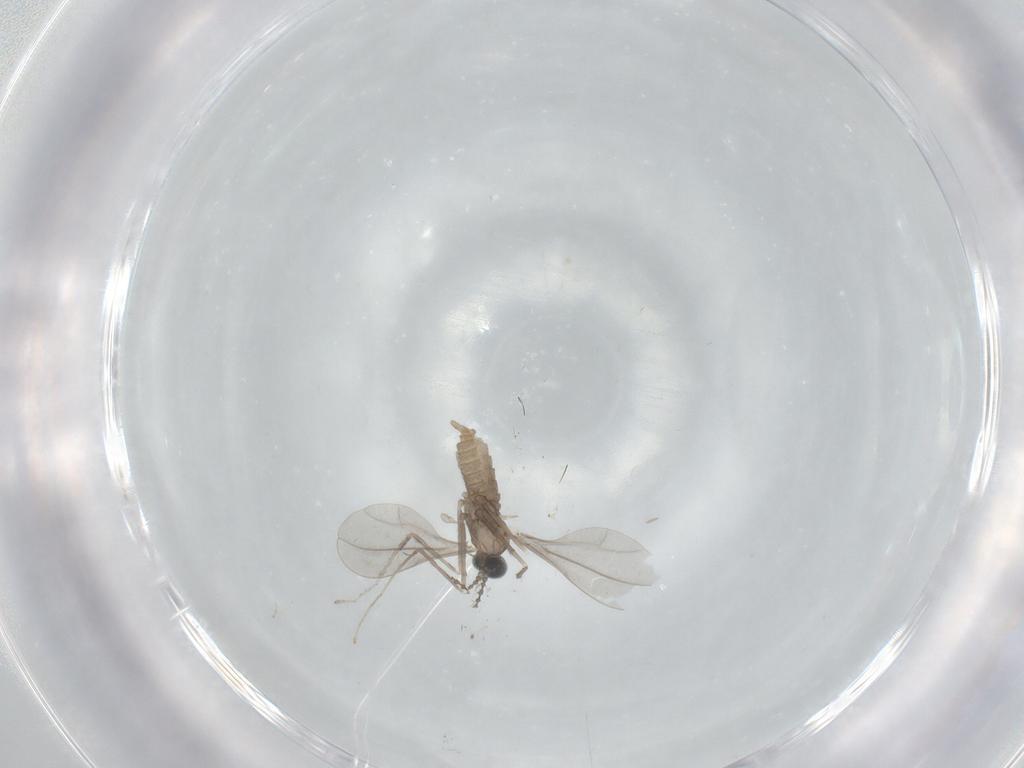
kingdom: Animalia
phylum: Arthropoda
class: Insecta
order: Diptera
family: Cecidomyiidae
